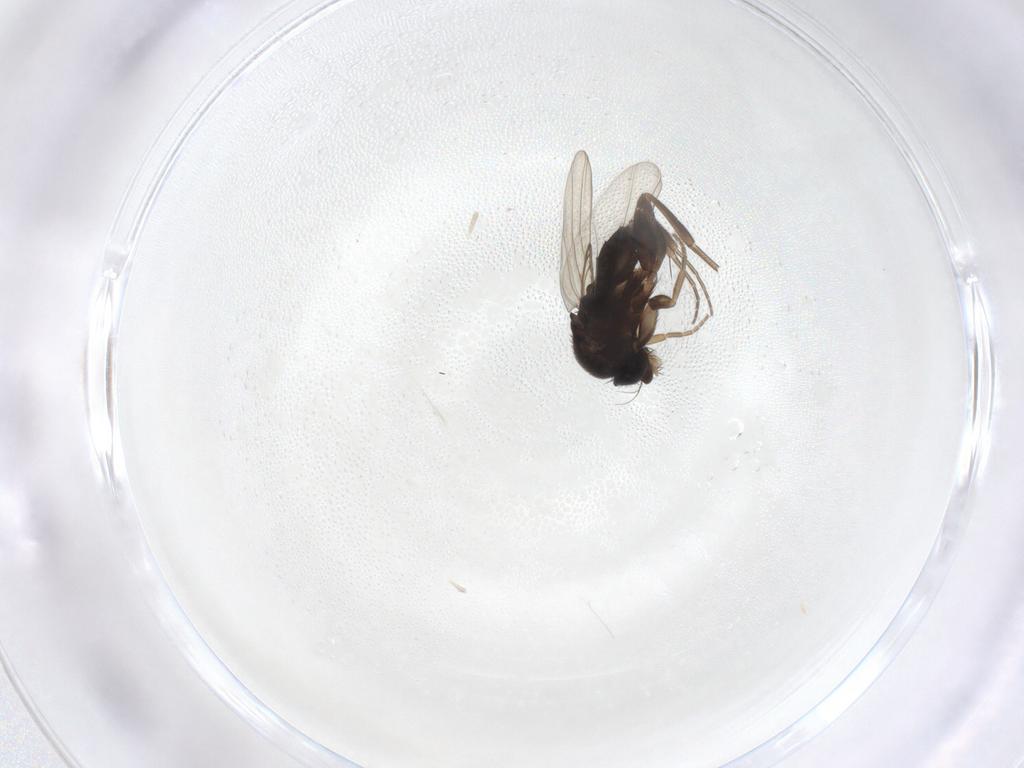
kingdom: Animalia
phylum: Arthropoda
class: Insecta
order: Diptera
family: Phoridae
